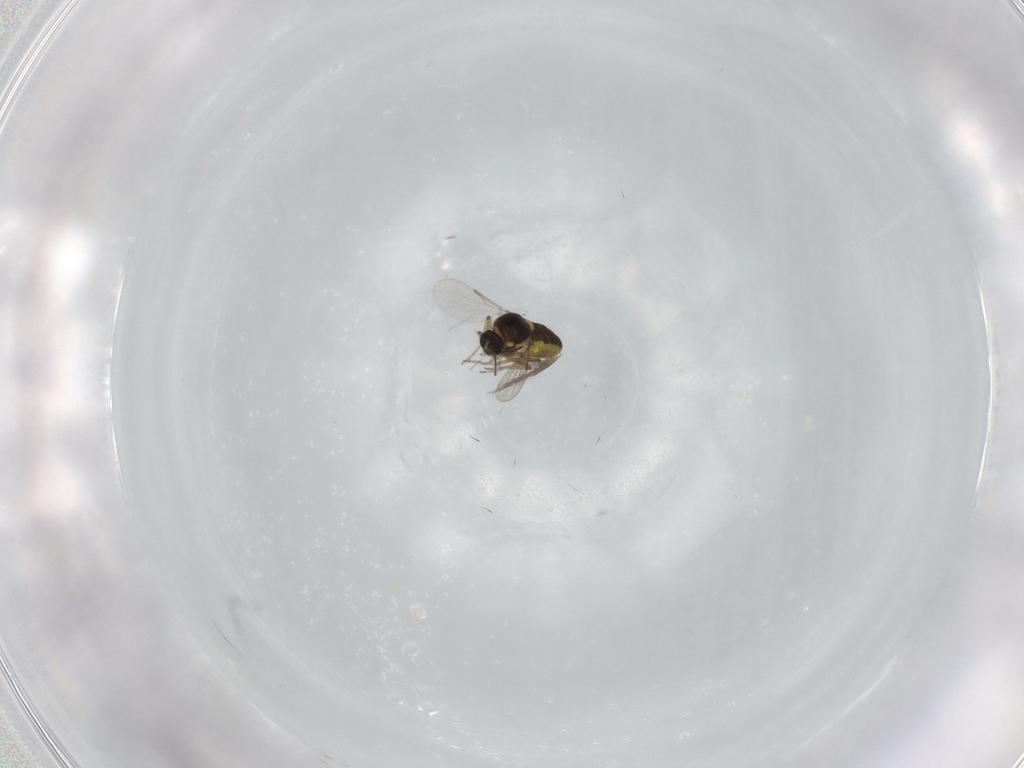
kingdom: Animalia
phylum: Arthropoda
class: Insecta
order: Diptera
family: Ceratopogonidae
